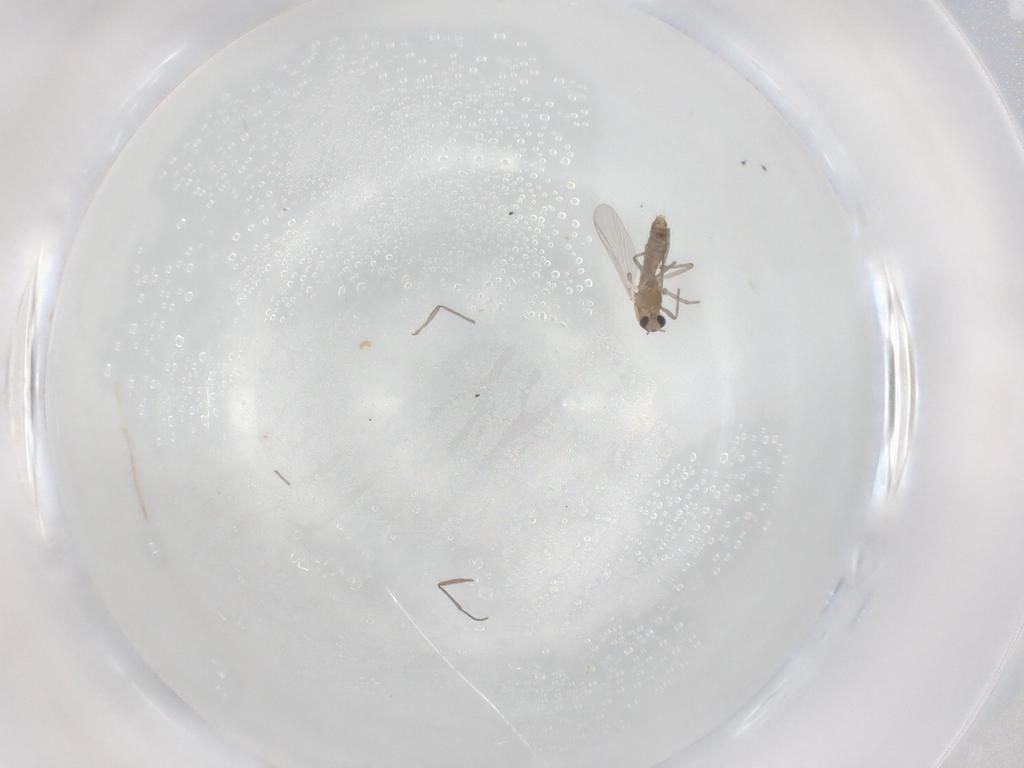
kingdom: Animalia
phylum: Arthropoda
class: Insecta
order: Diptera
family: Chironomidae
